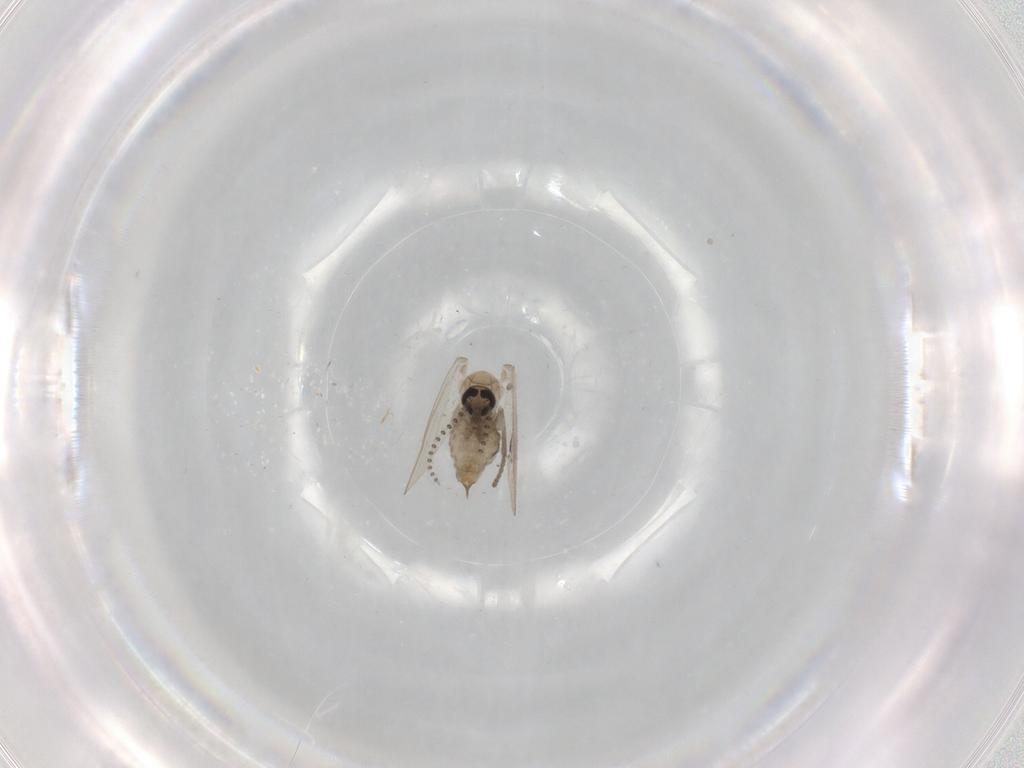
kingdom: Animalia
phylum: Arthropoda
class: Insecta
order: Diptera
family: Psychodidae
